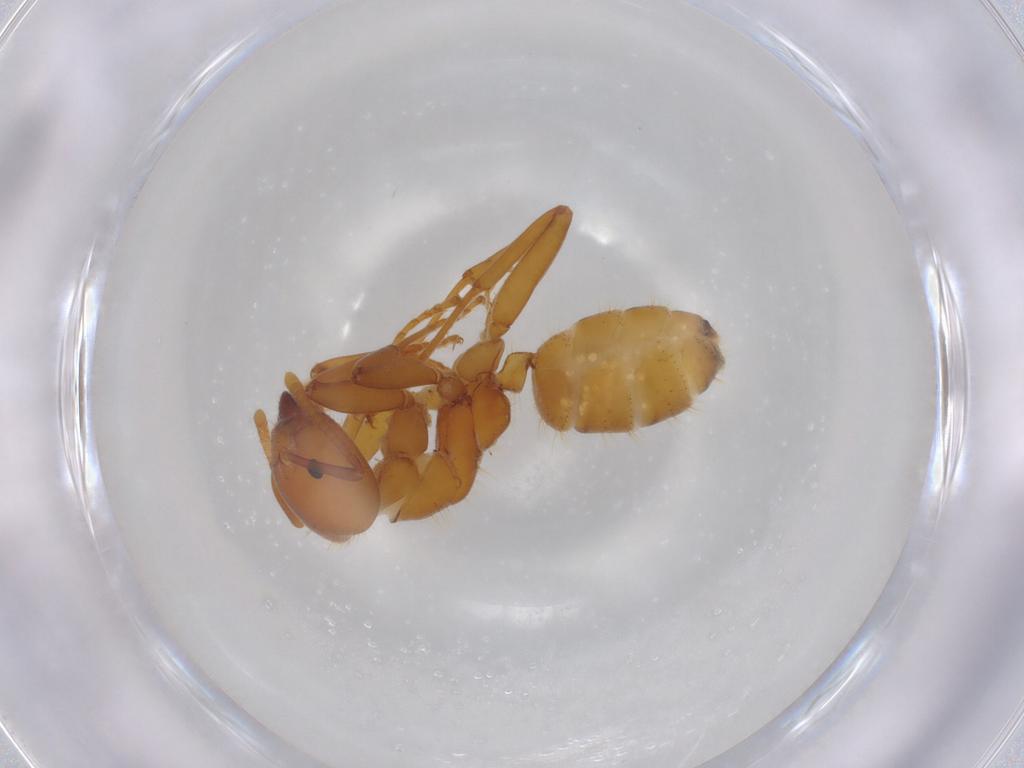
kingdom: Animalia
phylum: Arthropoda
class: Insecta
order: Hymenoptera
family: Formicidae
